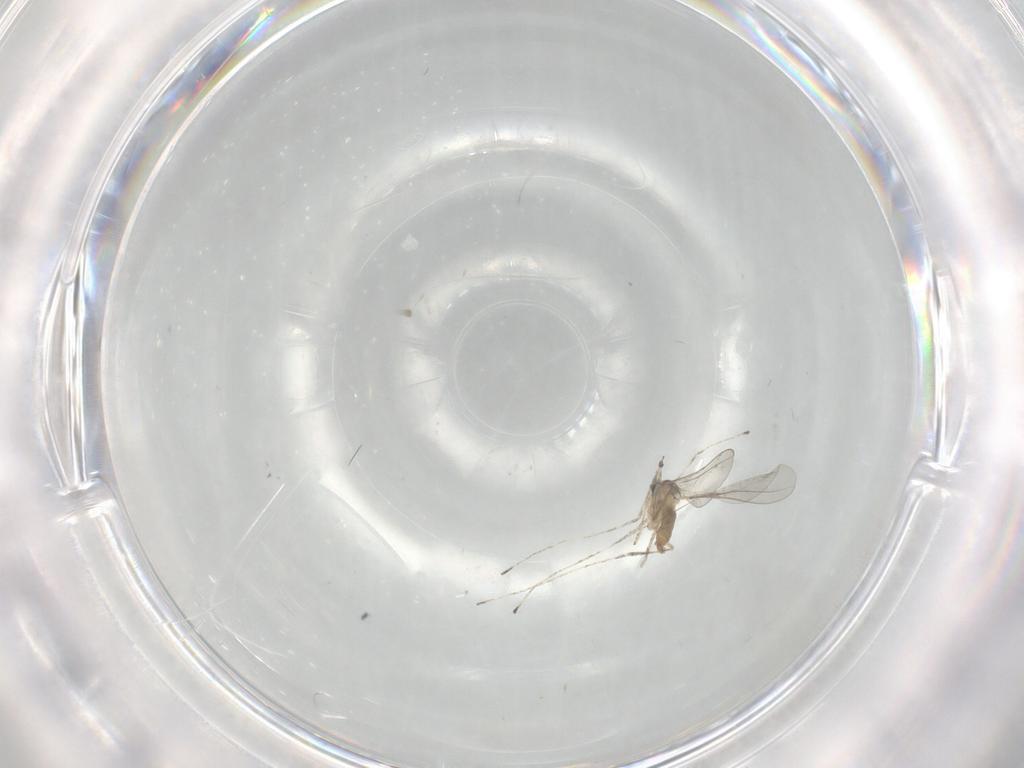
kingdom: Animalia
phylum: Arthropoda
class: Insecta
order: Diptera
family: Cecidomyiidae
